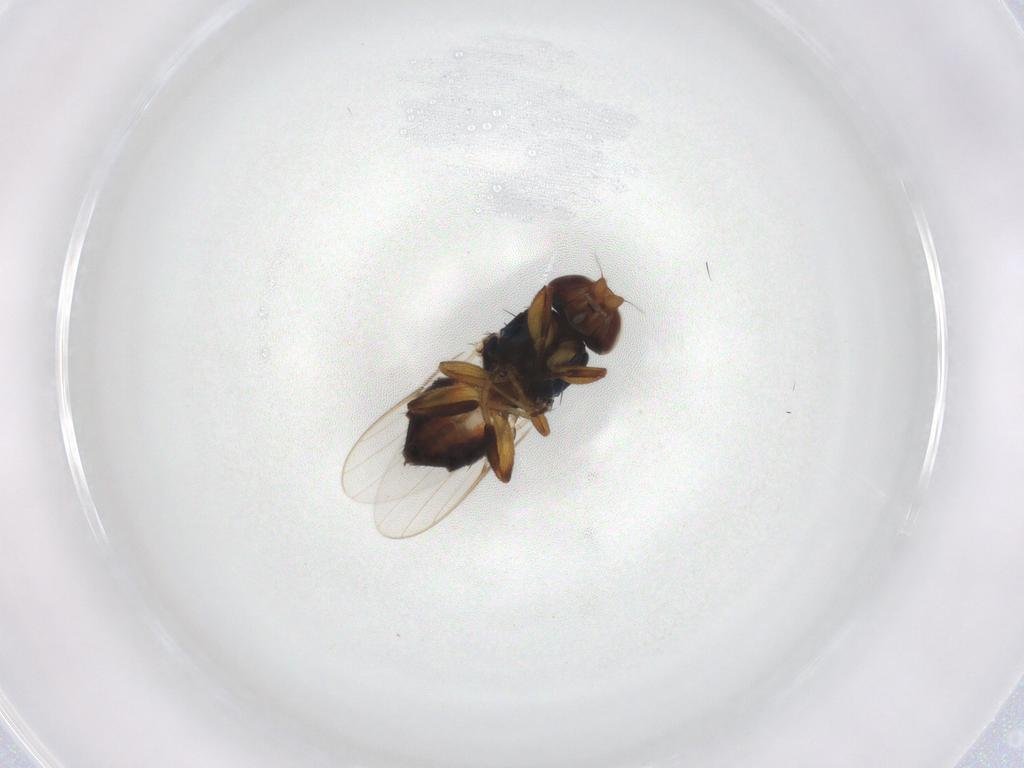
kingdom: Animalia
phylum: Arthropoda
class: Insecta
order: Diptera
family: Chloropidae
